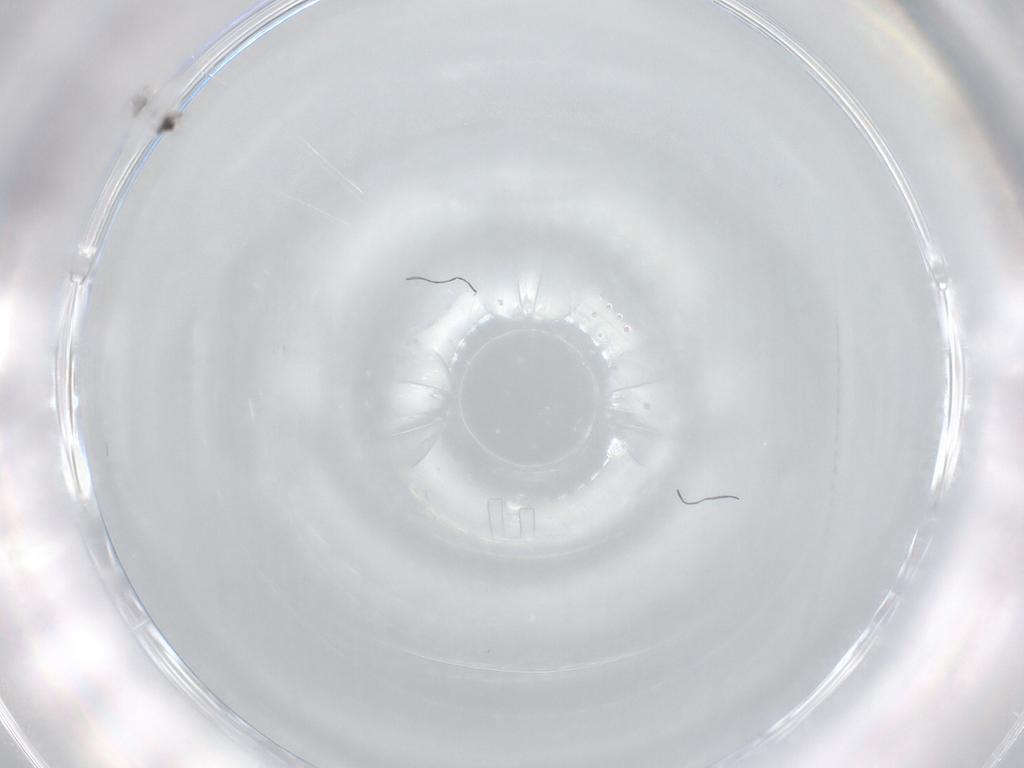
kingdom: Animalia
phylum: Arthropoda
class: Insecta
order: Hymenoptera
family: Mymaridae
